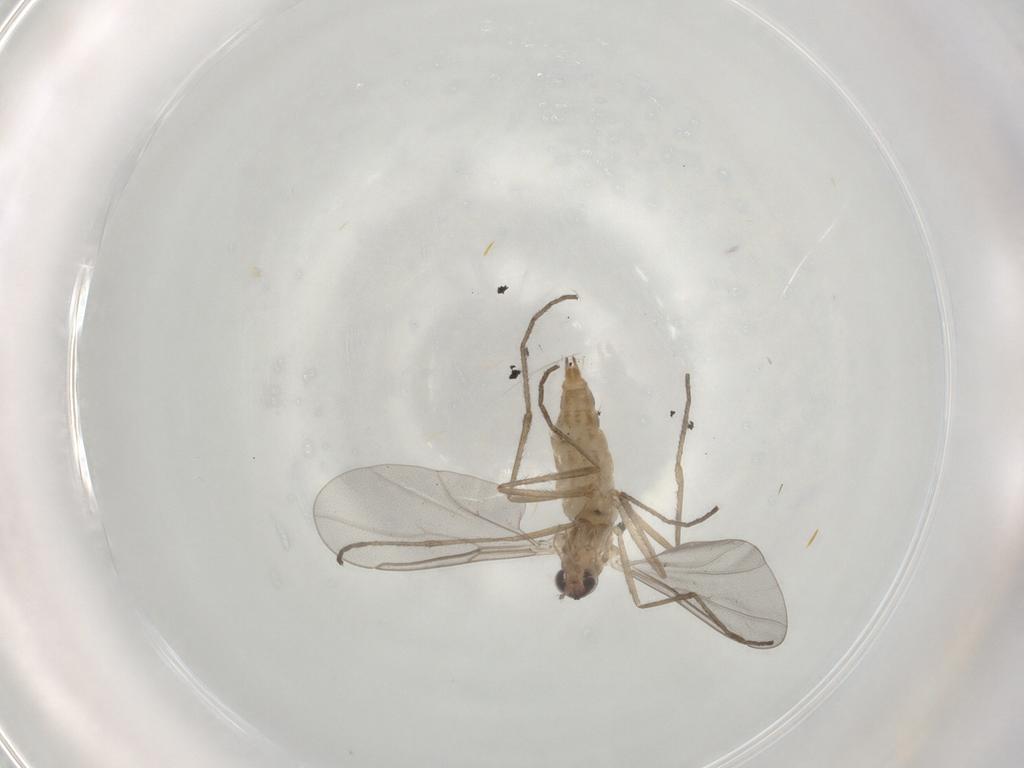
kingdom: Animalia
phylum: Arthropoda
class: Insecta
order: Diptera
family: Cecidomyiidae
